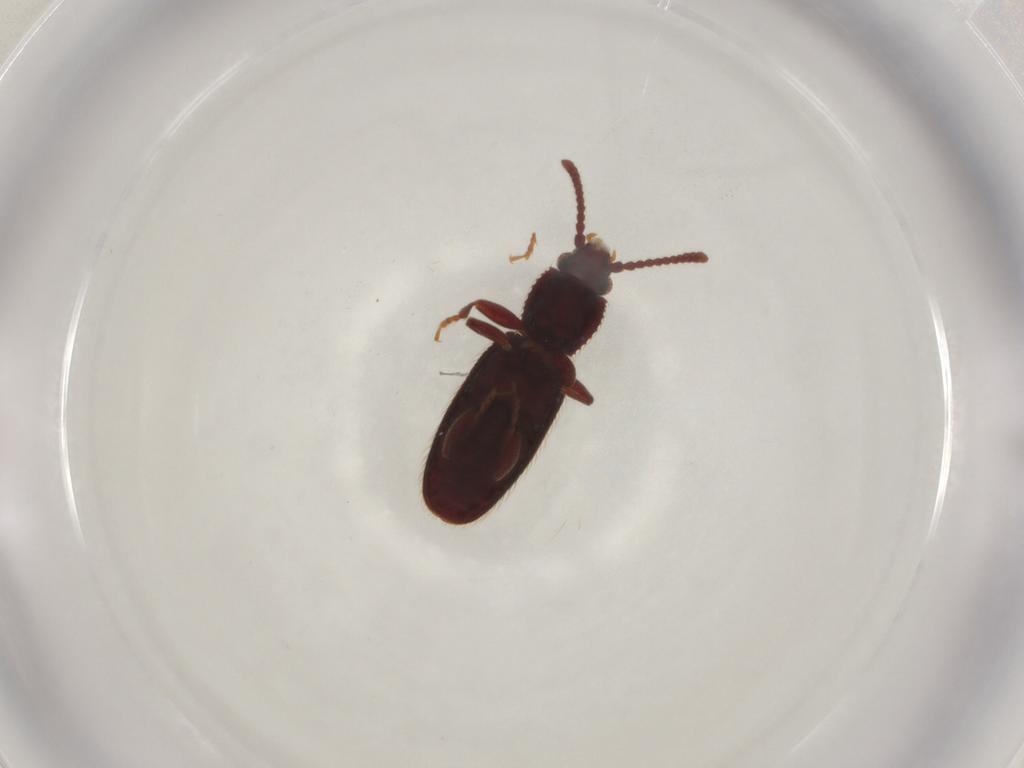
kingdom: Animalia
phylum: Arthropoda
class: Insecta
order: Coleoptera
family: Silvanidae
